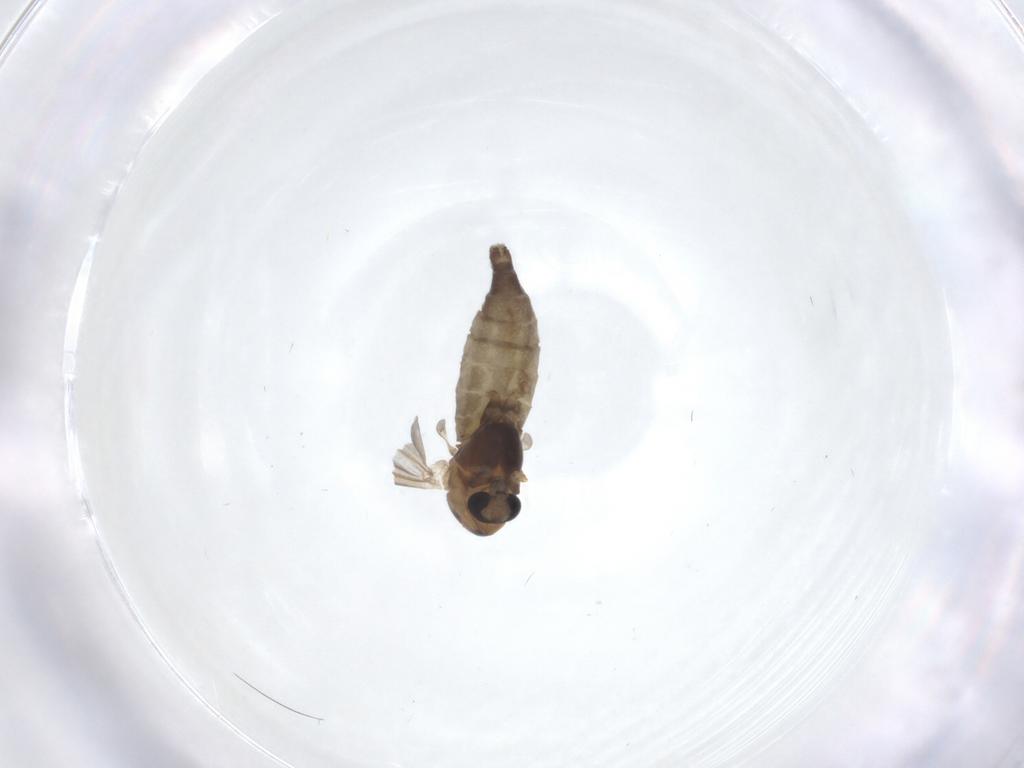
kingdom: Animalia
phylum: Arthropoda
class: Insecta
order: Diptera
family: Chironomidae
